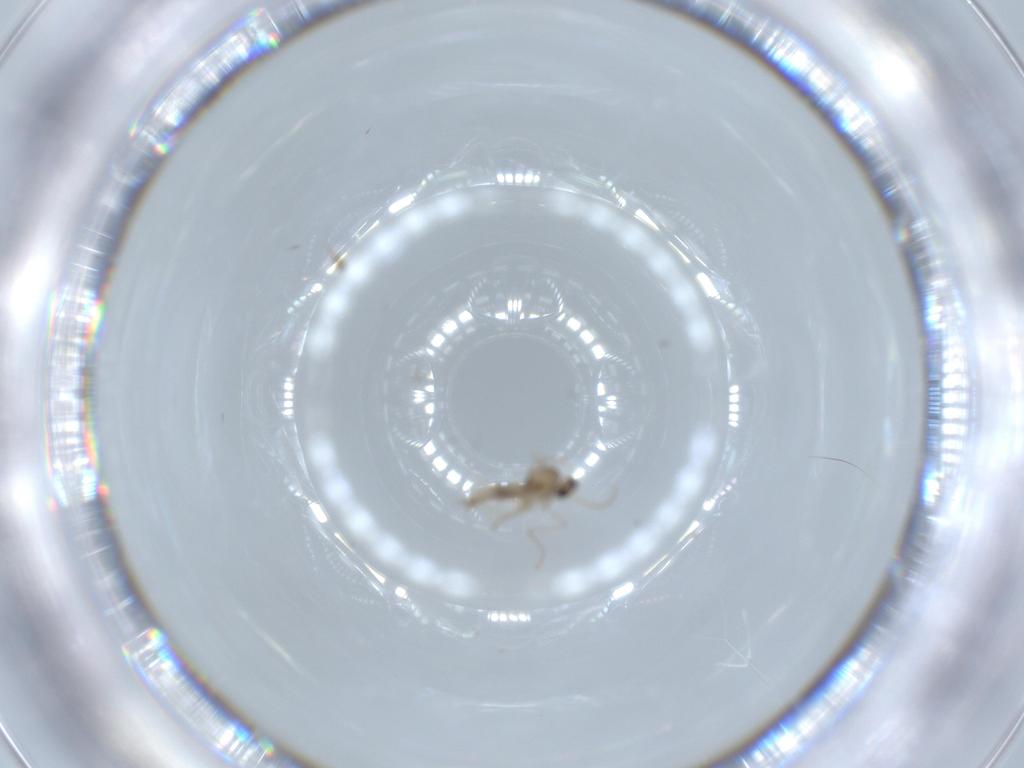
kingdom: Animalia
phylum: Arthropoda
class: Insecta
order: Diptera
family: Cecidomyiidae
